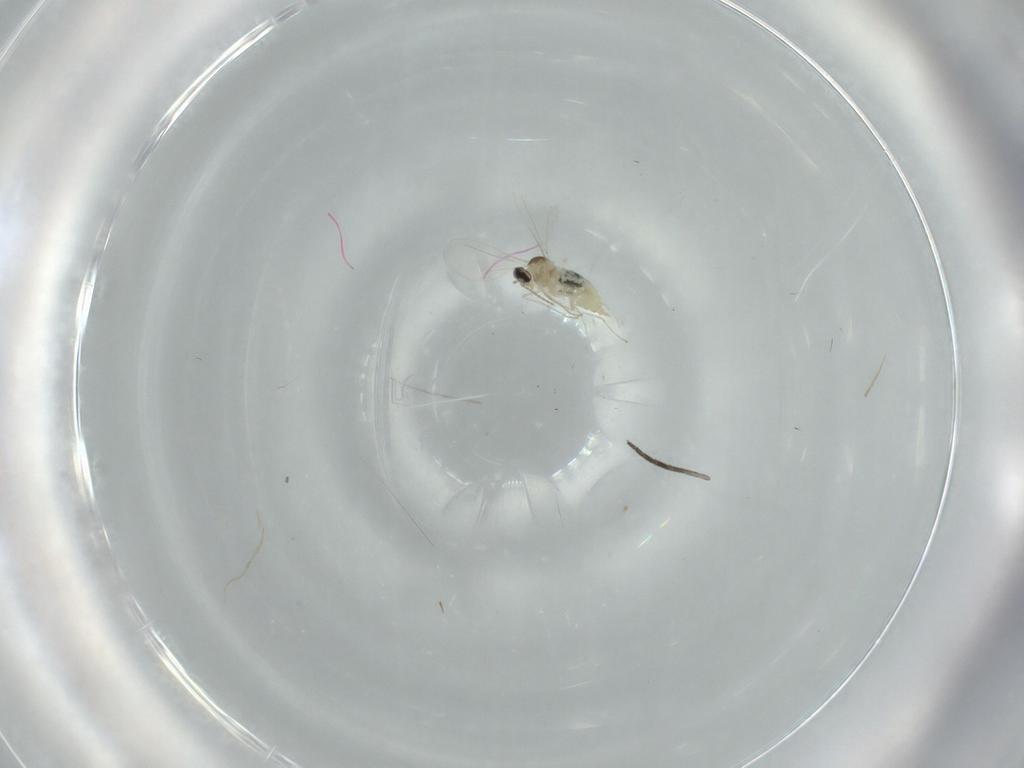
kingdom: Animalia
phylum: Arthropoda
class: Insecta
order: Diptera
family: Cecidomyiidae
